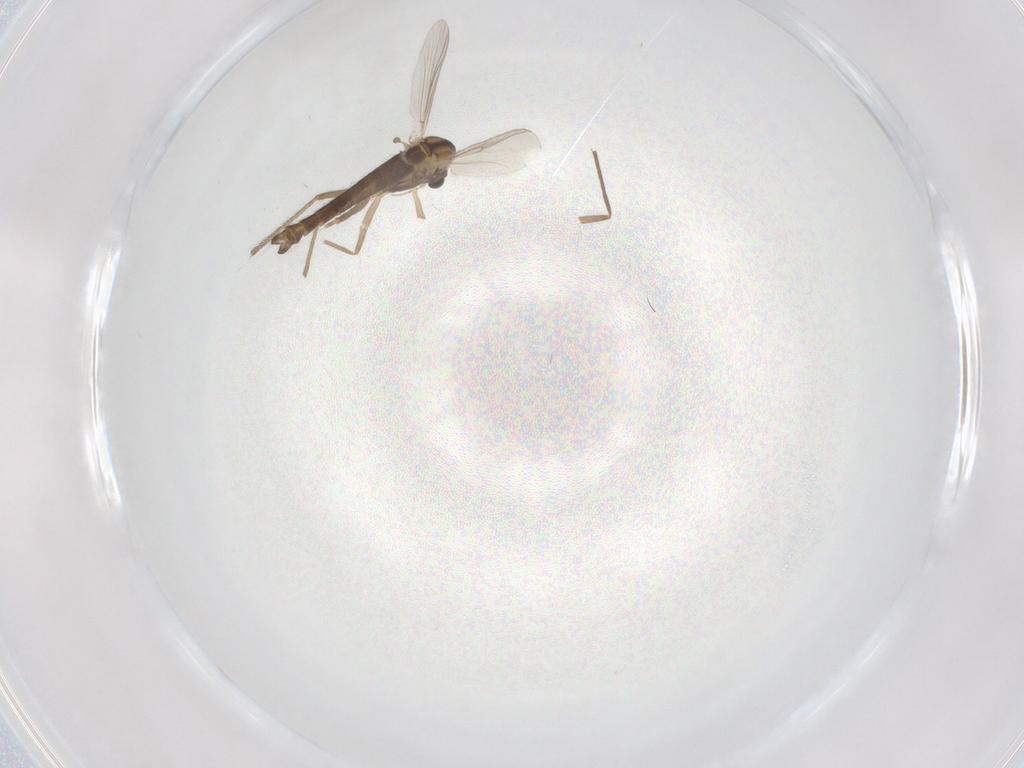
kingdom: Animalia
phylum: Arthropoda
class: Insecta
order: Diptera
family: Chironomidae
